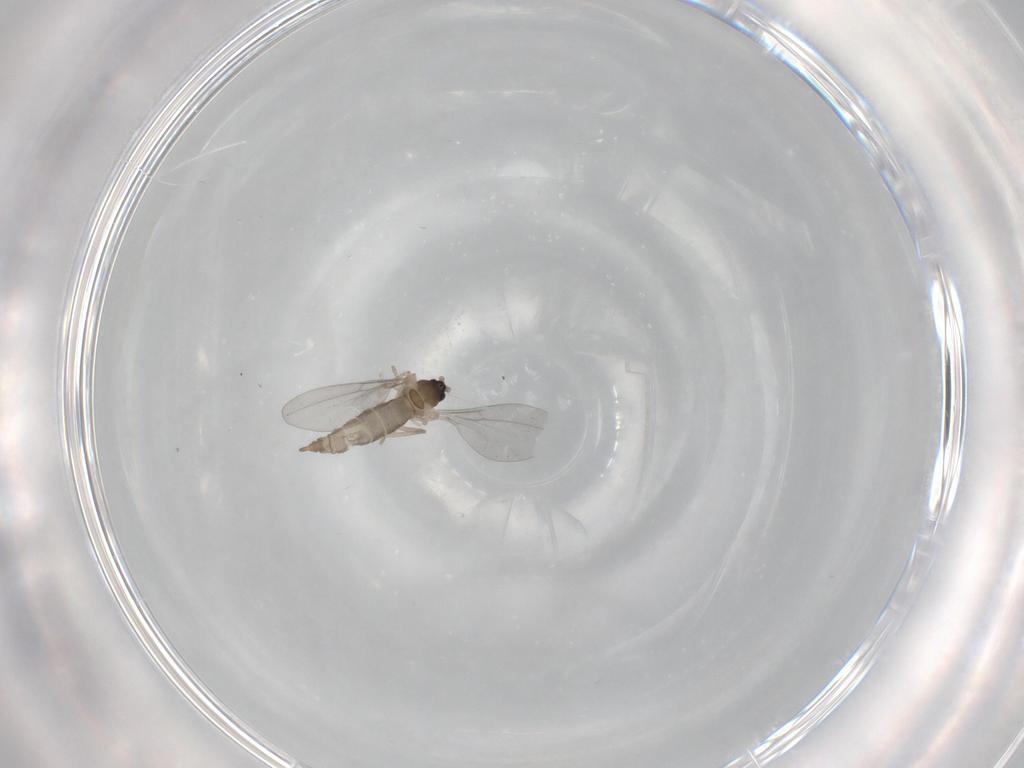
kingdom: Animalia
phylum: Arthropoda
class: Insecta
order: Diptera
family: Cecidomyiidae
